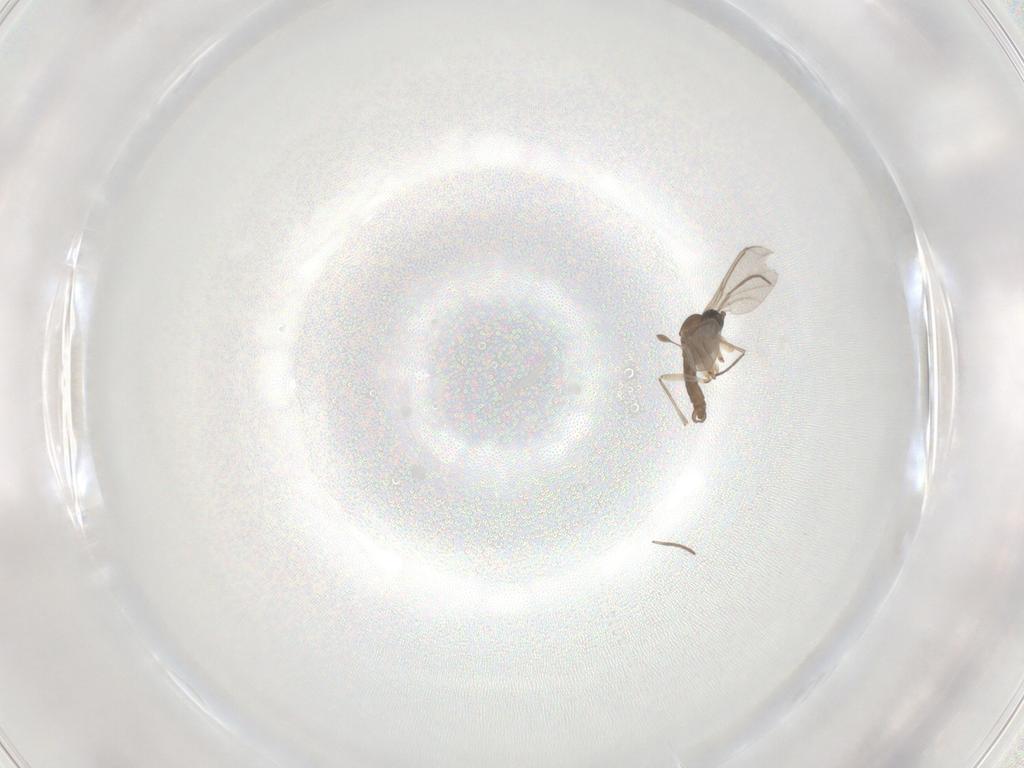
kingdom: Animalia
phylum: Arthropoda
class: Insecta
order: Diptera
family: Sciaridae
